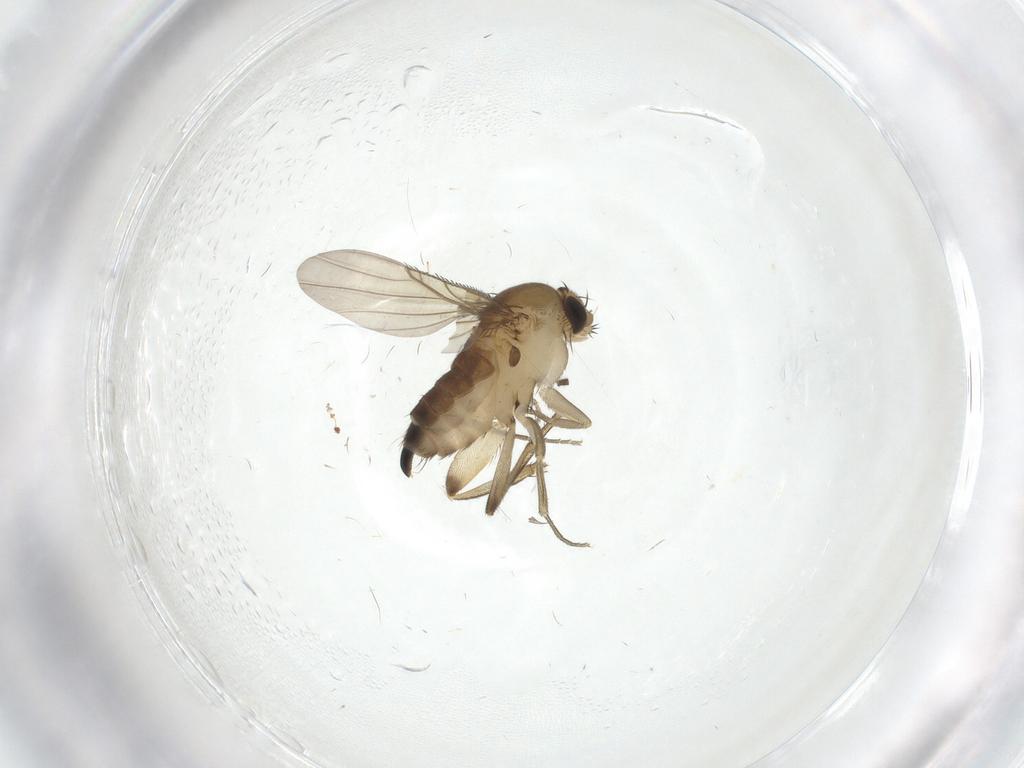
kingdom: Animalia
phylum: Arthropoda
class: Insecta
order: Diptera
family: Phoridae
